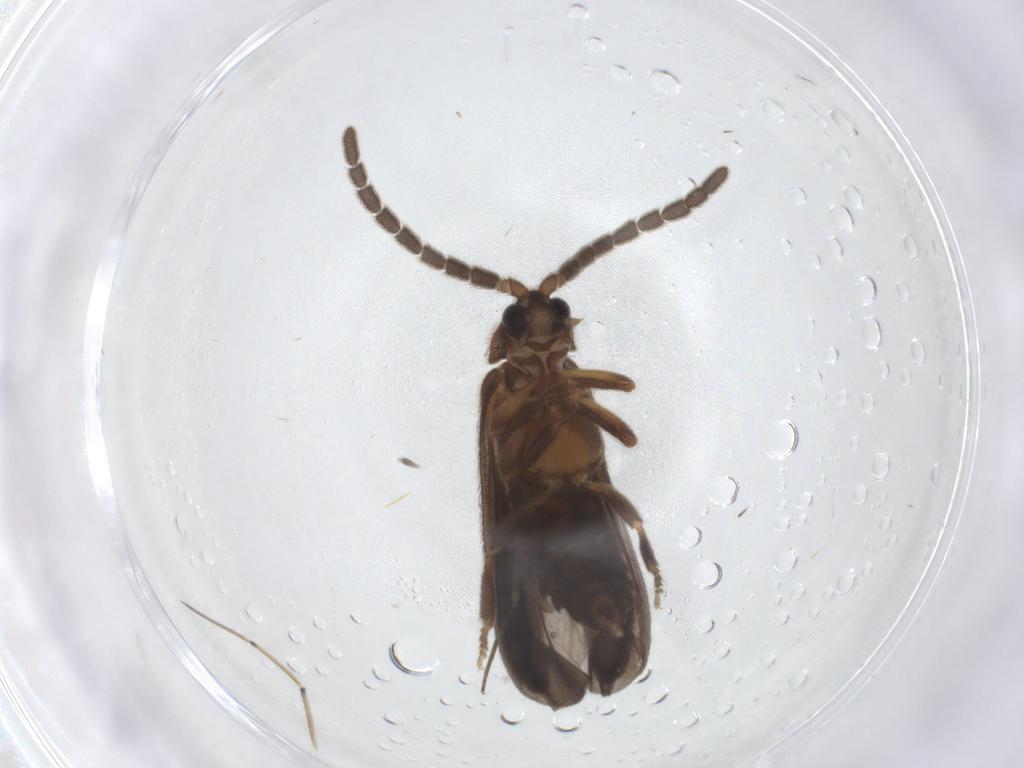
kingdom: Animalia
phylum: Arthropoda
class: Insecta
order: Coleoptera
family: Lycidae
